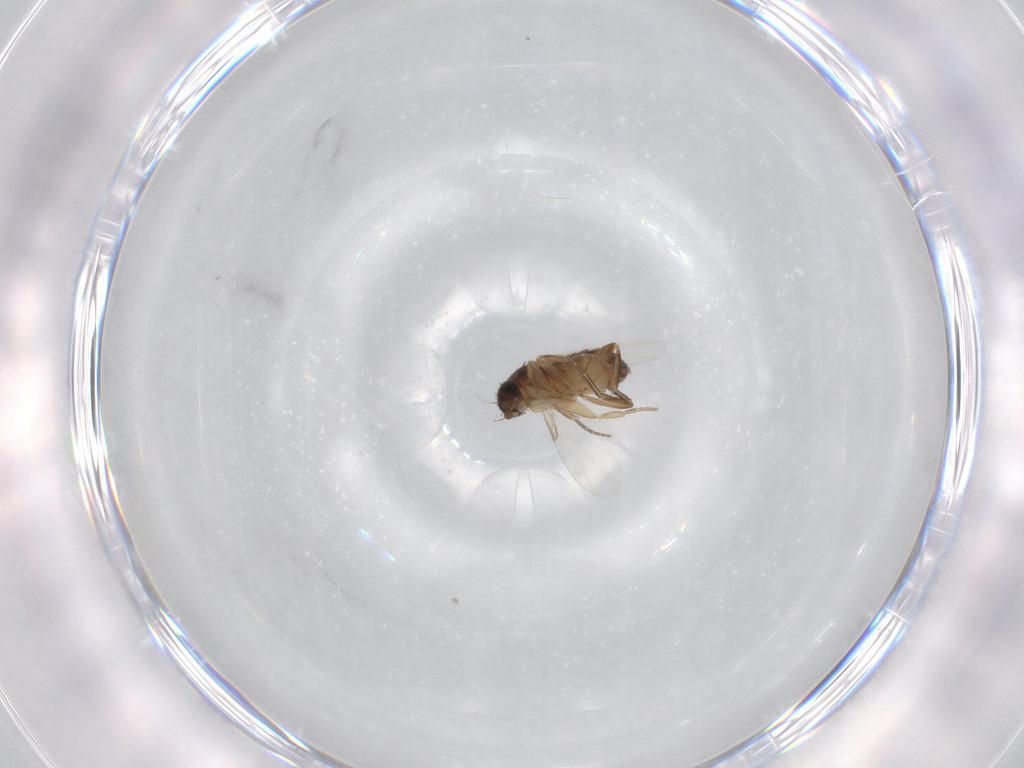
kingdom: Animalia
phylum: Arthropoda
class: Insecta
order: Diptera
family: Phoridae
